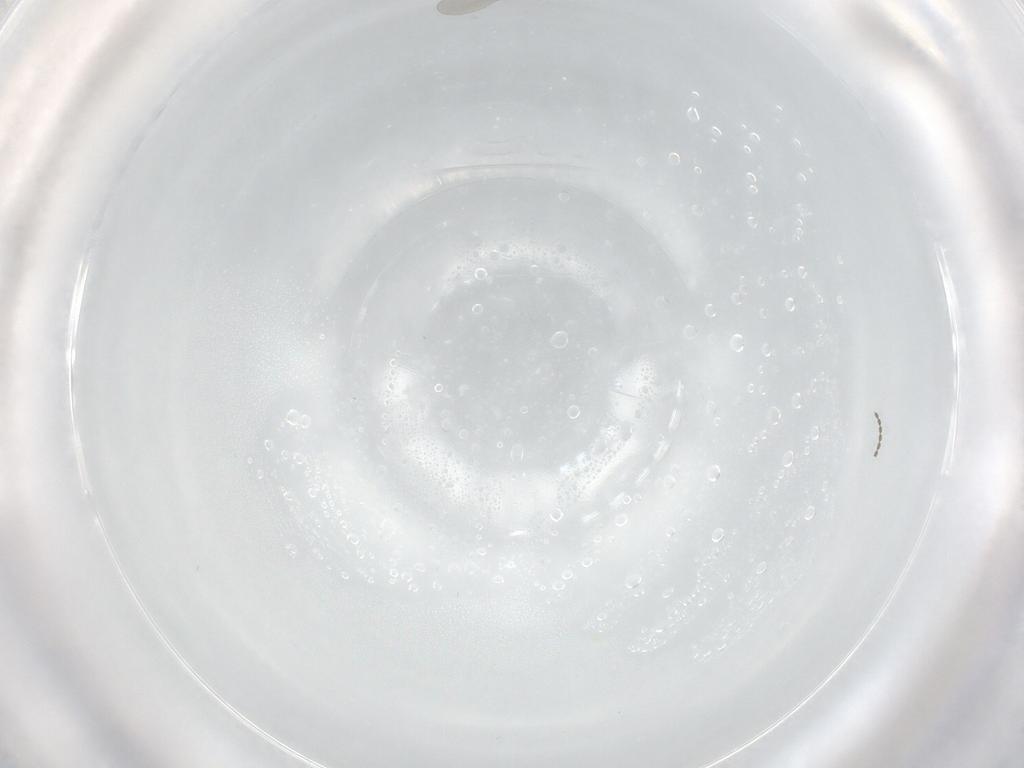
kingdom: Animalia
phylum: Arthropoda
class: Insecta
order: Diptera
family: Cecidomyiidae
